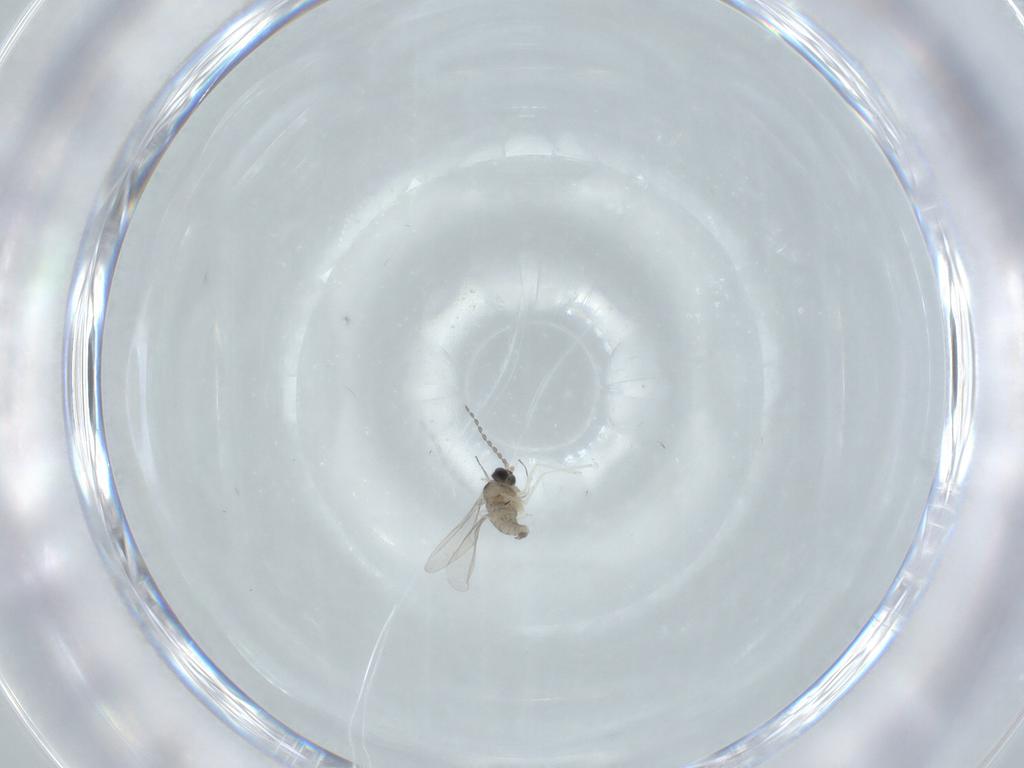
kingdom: Animalia
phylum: Arthropoda
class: Insecta
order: Diptera
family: Cecidomyiidae
